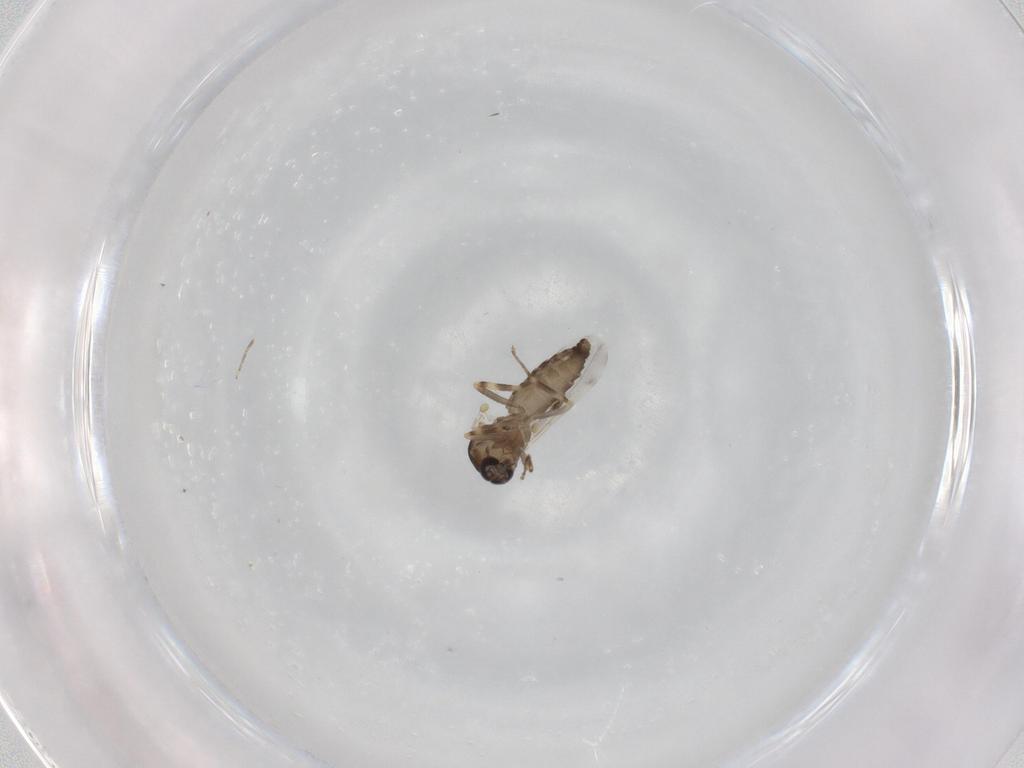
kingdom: Animalia
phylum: Arthropoda
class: Insecta
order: Diptera
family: Ceratopogonidae
